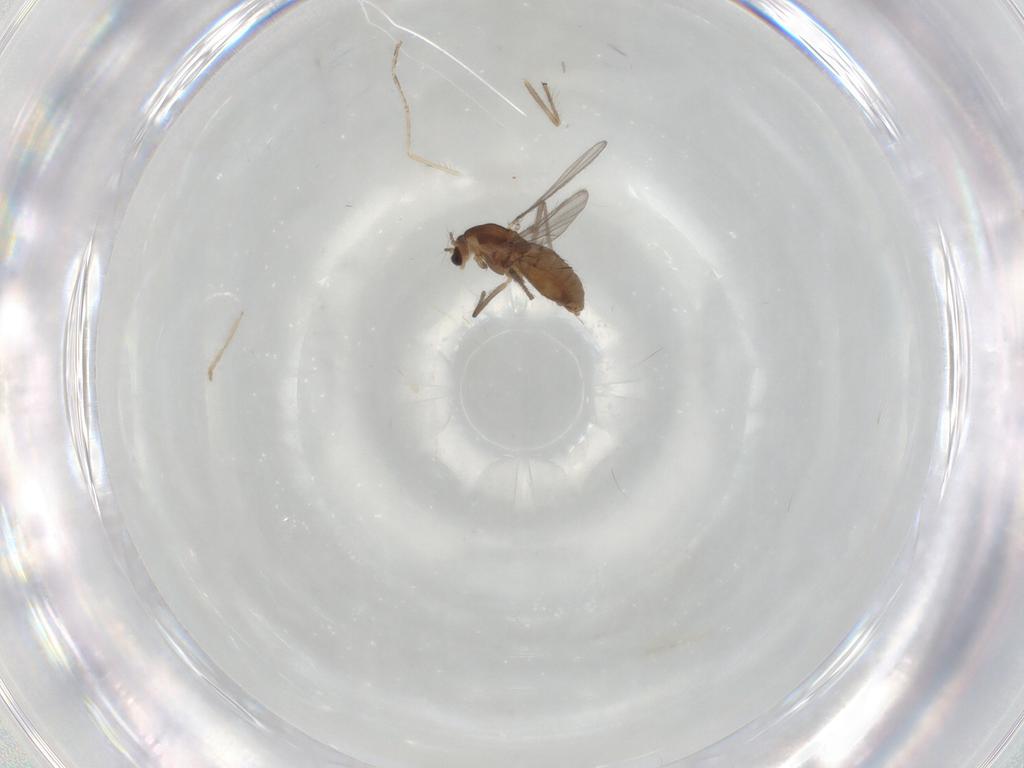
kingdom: Animalia
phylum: Arthropoda
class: Insecta
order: Diptera
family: Chironomidae
